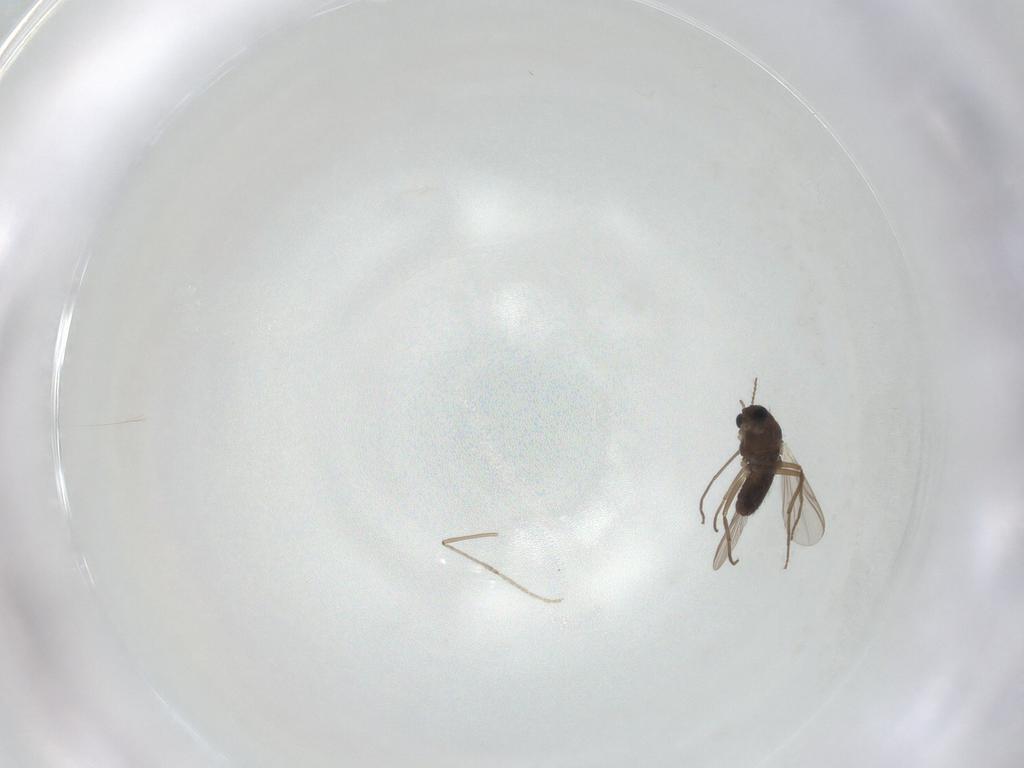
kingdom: Animalia
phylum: Arthropoda
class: Insecta
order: Diptera
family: Chironomidae
